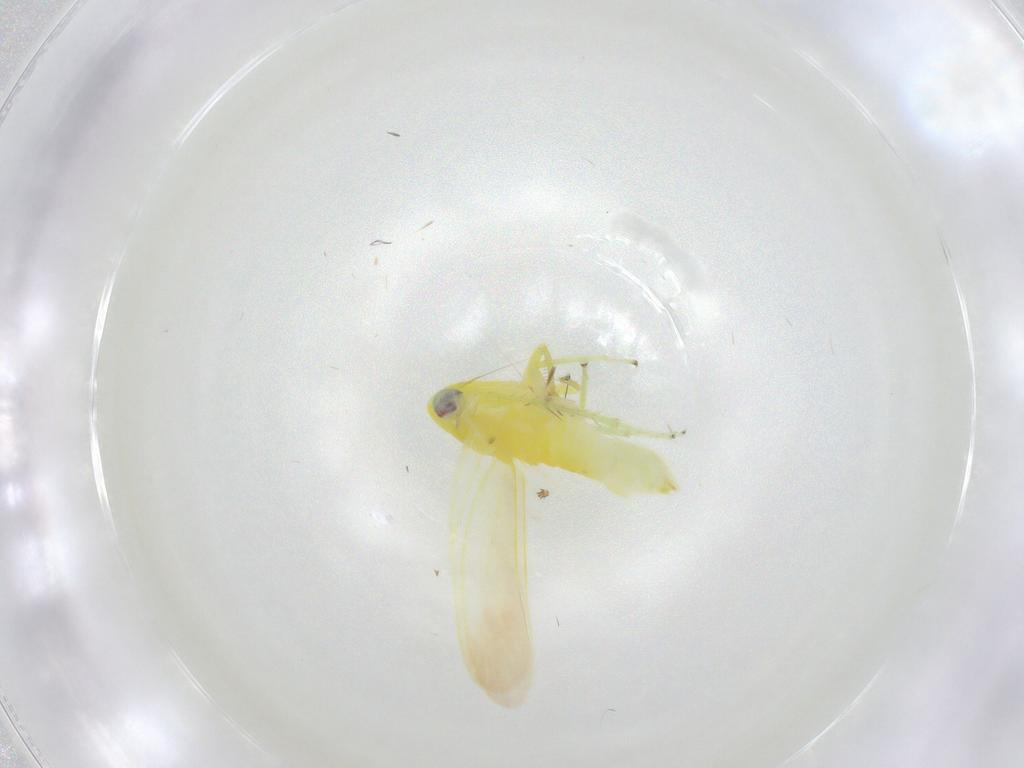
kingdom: Animalia
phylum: Arthropoda
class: Insecta
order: Hemiptera
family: Cicadellidae
